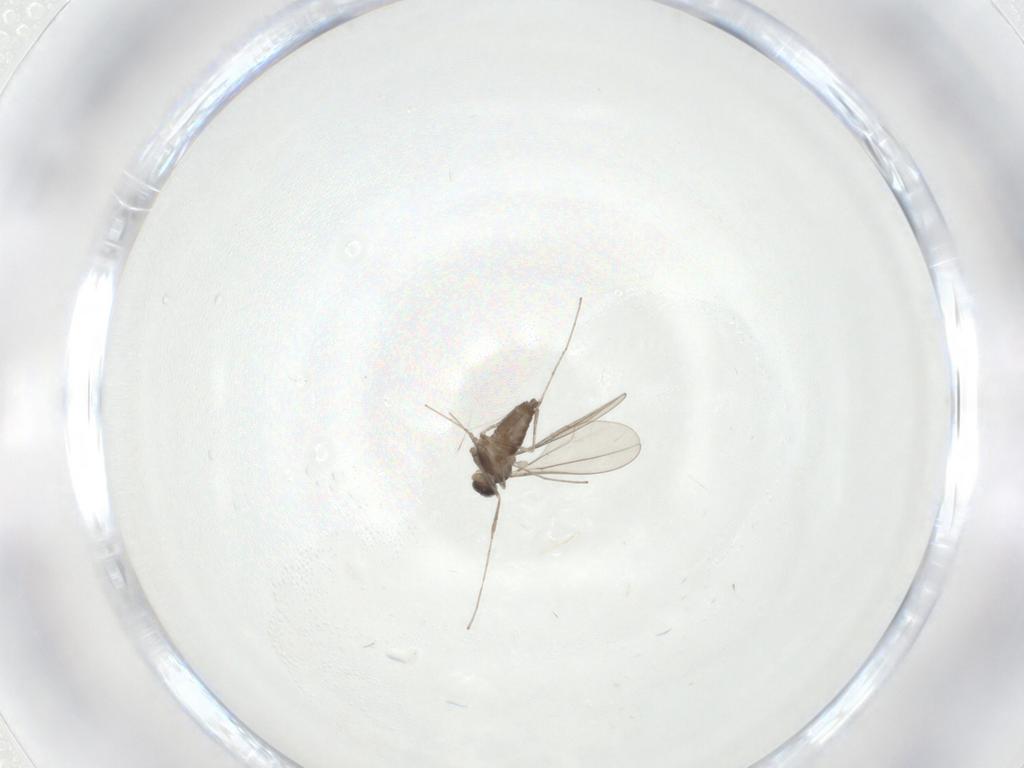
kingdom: Animalia
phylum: Arthropoda
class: Insecta
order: Diptera
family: Cecidomyiidae
